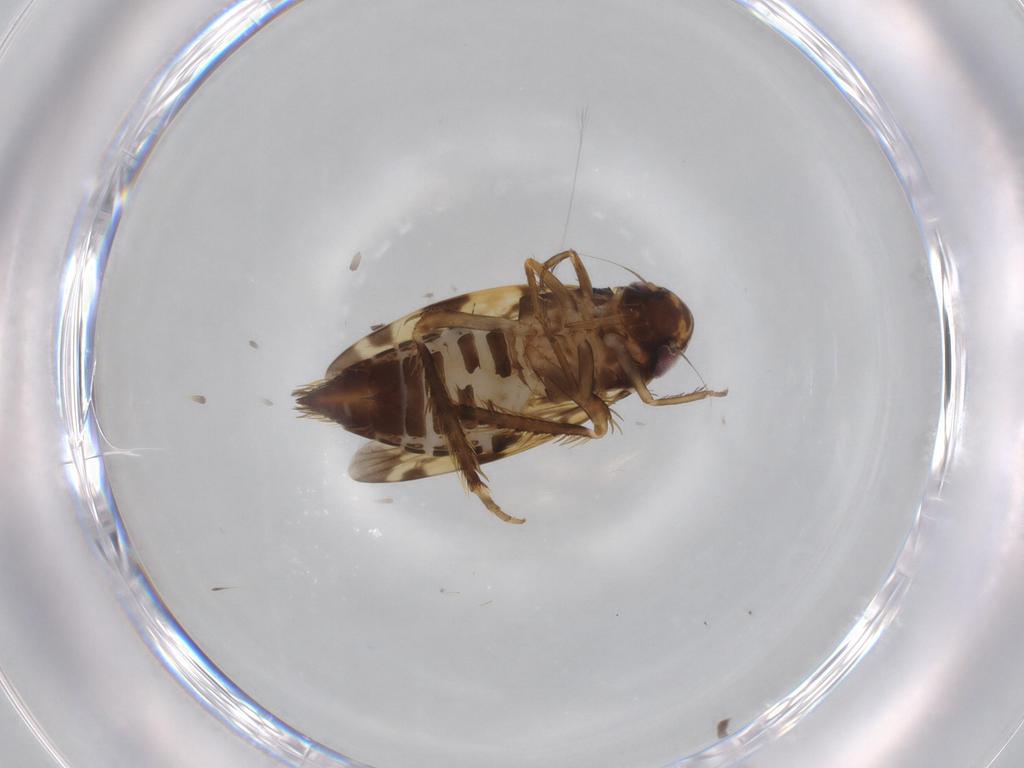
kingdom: Animalia
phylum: Arthropoda
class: Insecta
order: Hemiptera
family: Cicadellidae
